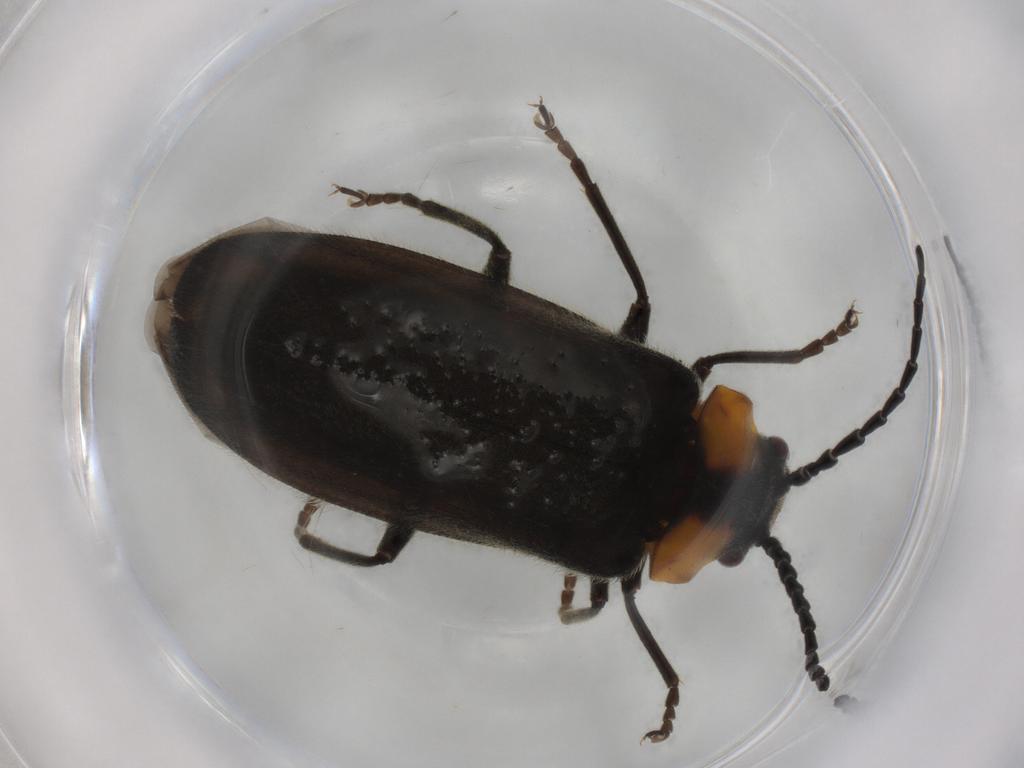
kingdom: Animalia
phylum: Arthropoda
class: Insecta
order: Coleoptera
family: Cantharidae
